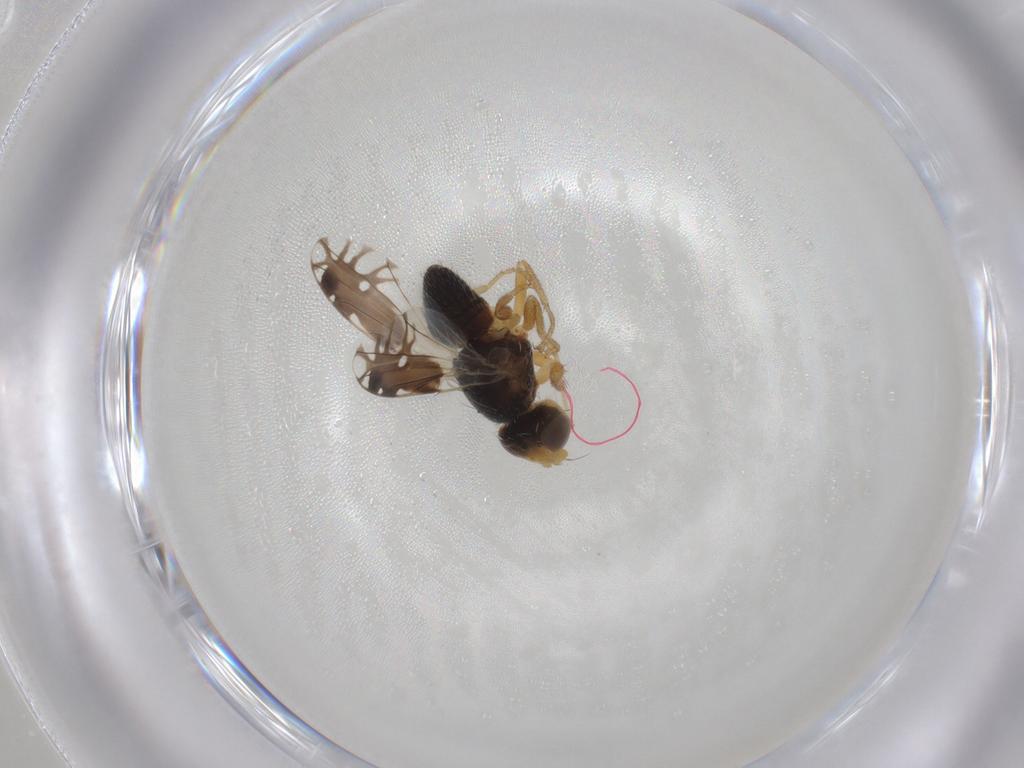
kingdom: Animalia
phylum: Arthropoda
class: Insecta
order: Diptera
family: Tephritidae
